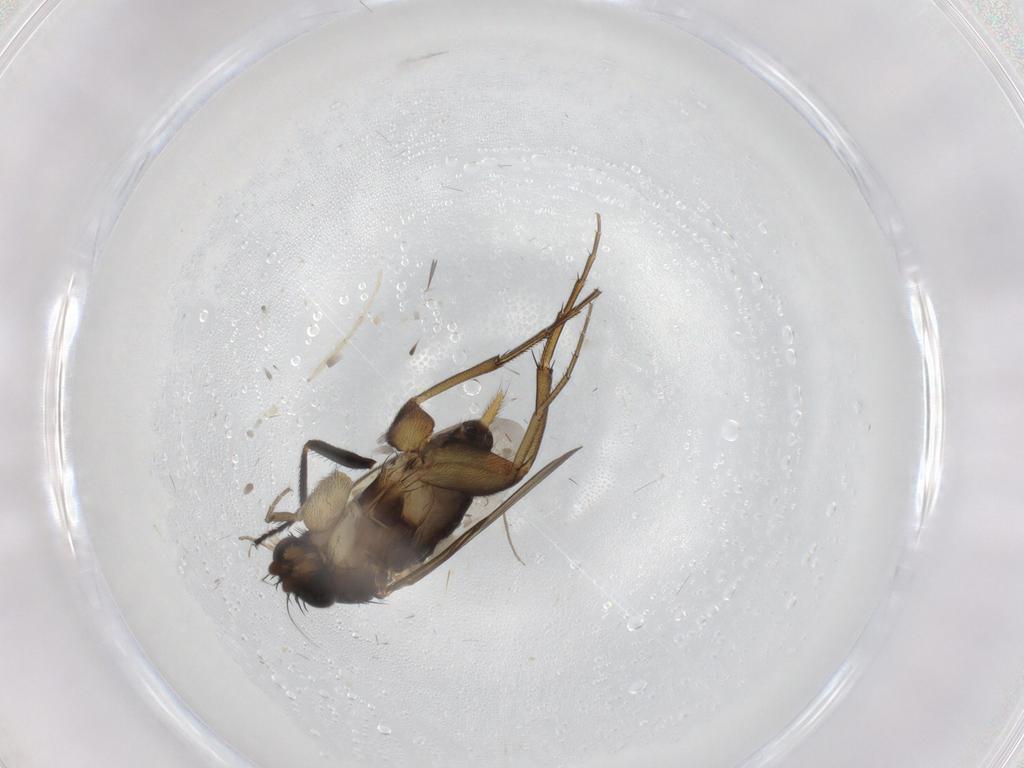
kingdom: Animalia
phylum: Arthropoda
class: Insecta
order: Diptera
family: Phoridae
